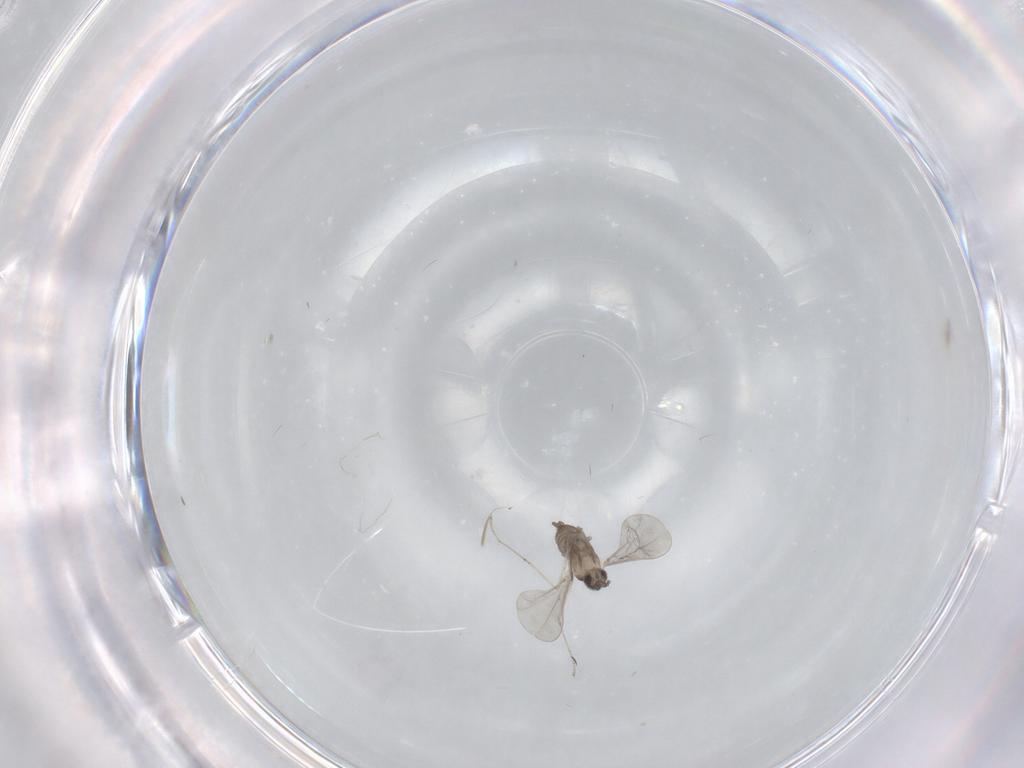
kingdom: Animalia
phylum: Arthropoda
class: Insecta
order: Diptera
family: Cecidomyiidae
